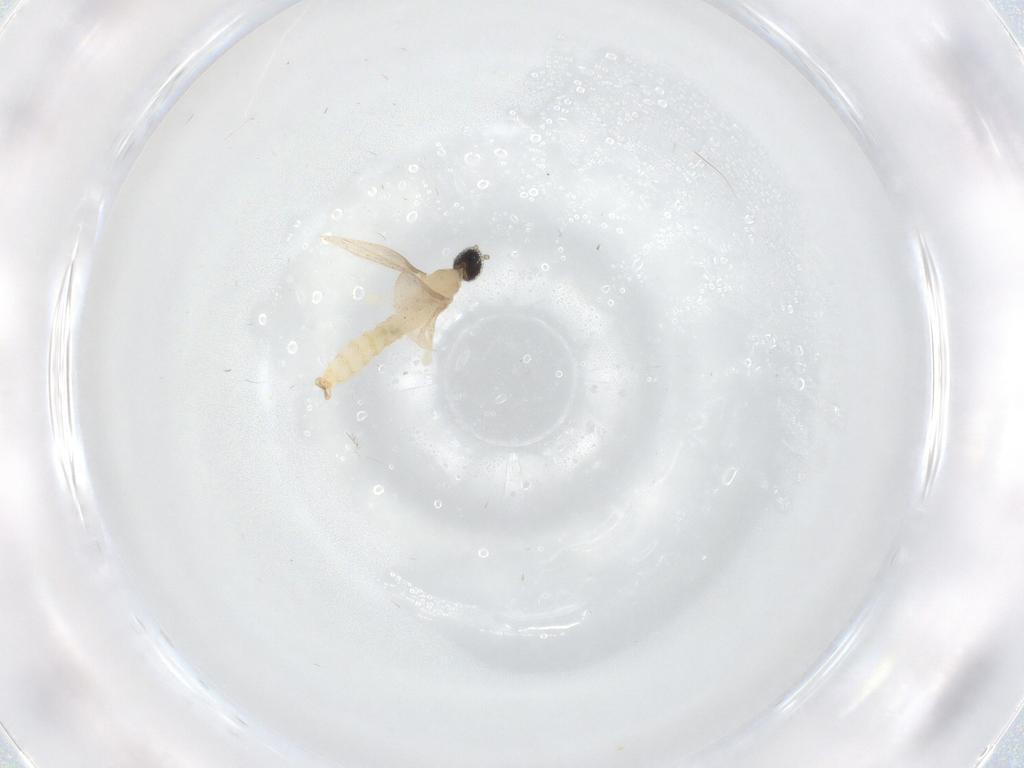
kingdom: Animalia
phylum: Arthropoda
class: Insecta
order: Diptera
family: Cecidomyiidae
